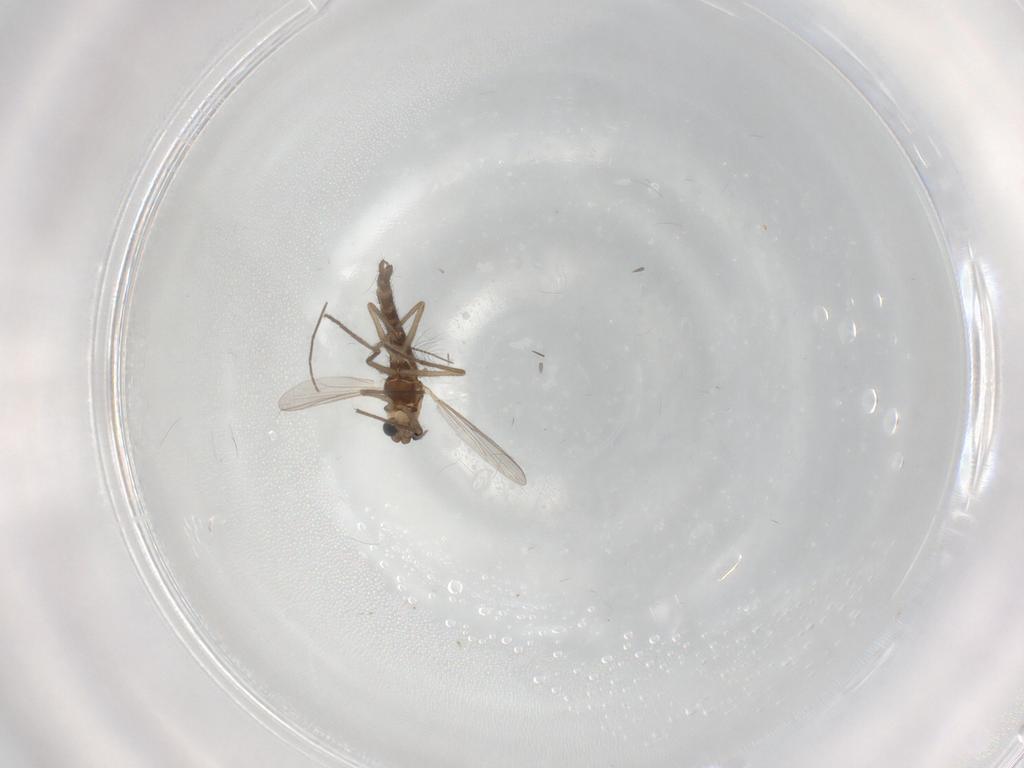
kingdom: Animalia
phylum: Arthropoda
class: Insecta
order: Diptera
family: Chironomidae
